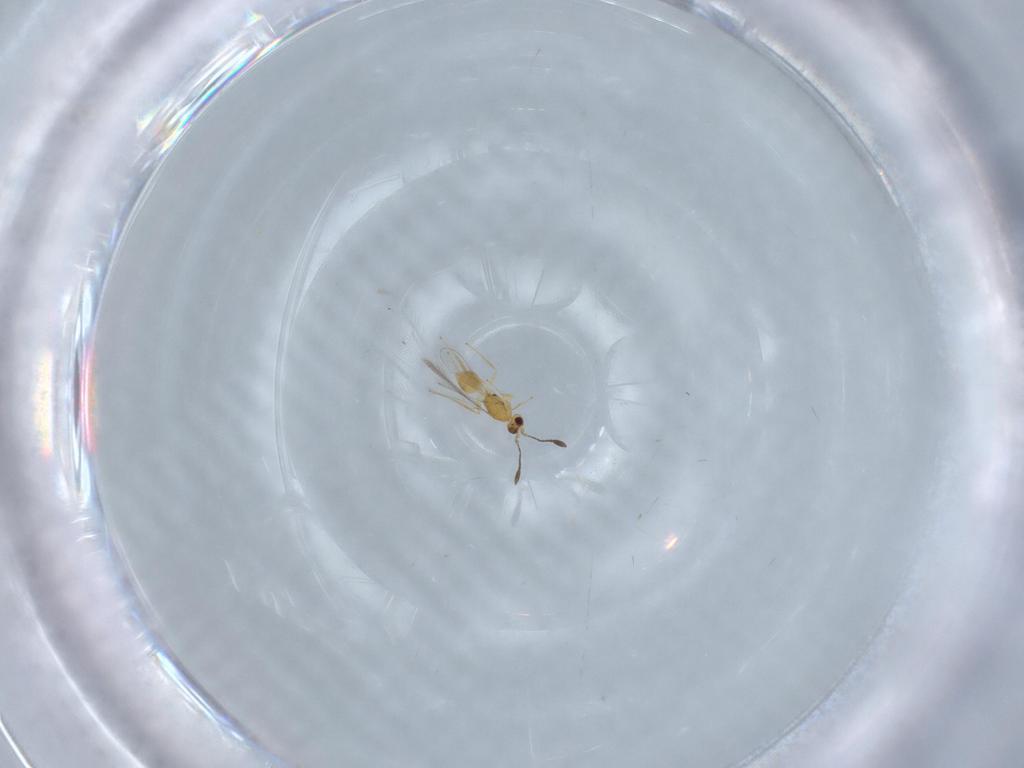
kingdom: Animalia
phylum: Arthropoda
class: Insecta
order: Hymenoptera
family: Mymaridae
